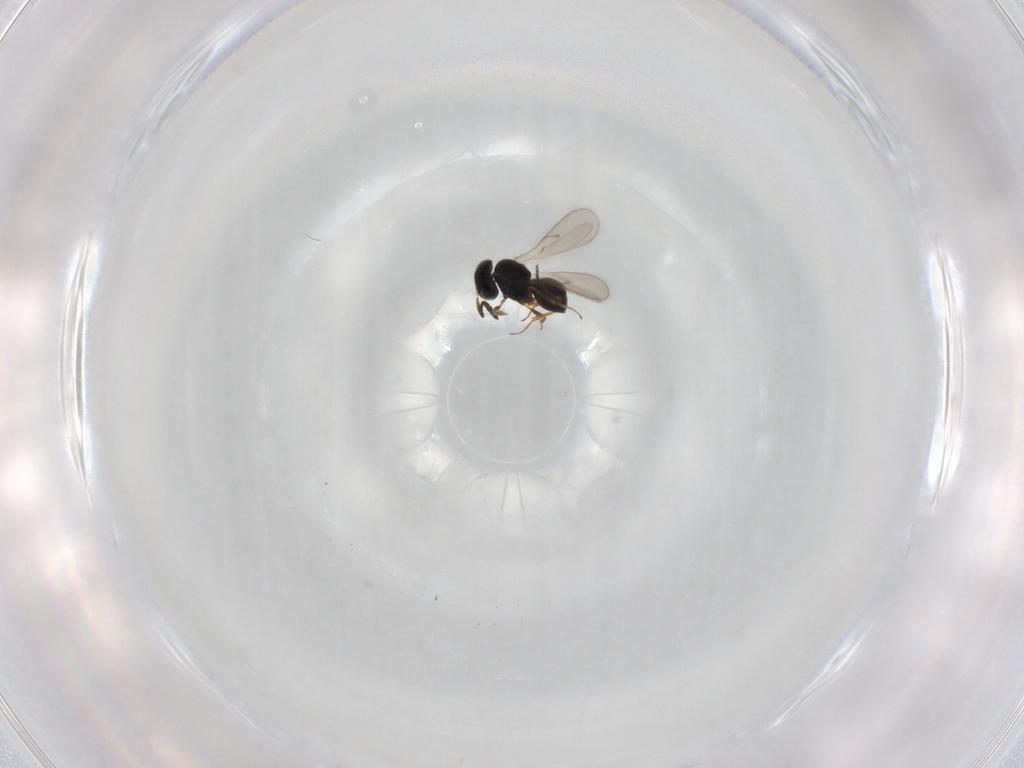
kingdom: Animalia
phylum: Arthropoda
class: Insecta
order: Hymenoptera
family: Scelionidae
